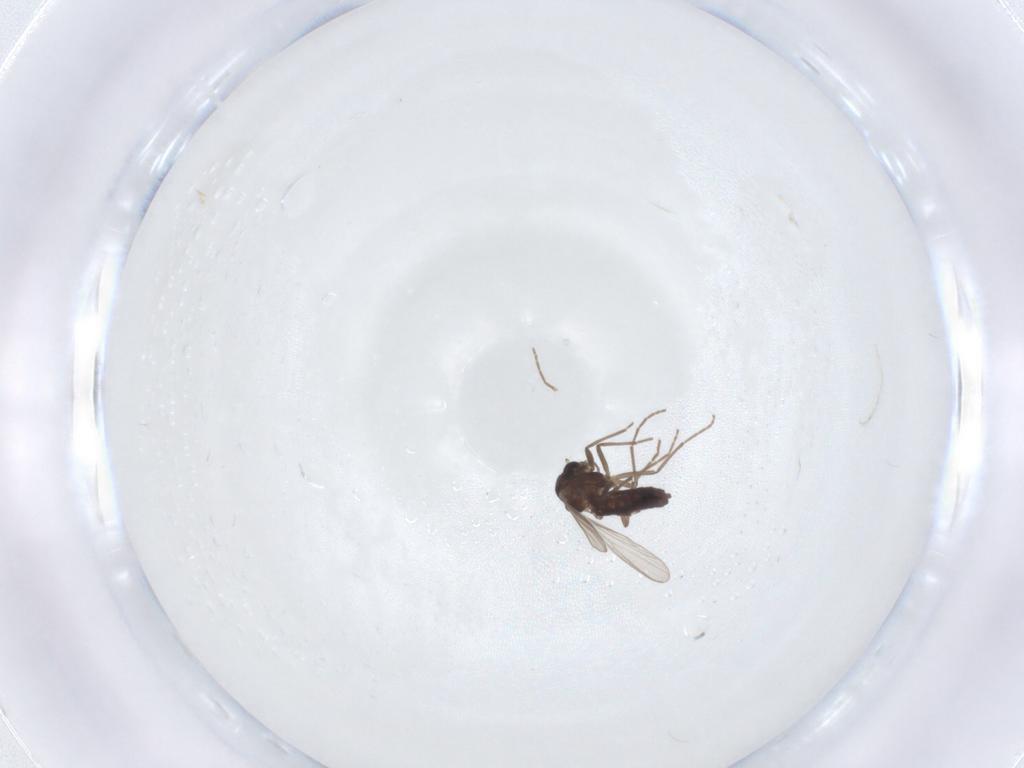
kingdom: Animalia
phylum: Arthropoda
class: Insecta
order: Diptera
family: Chironomidae
